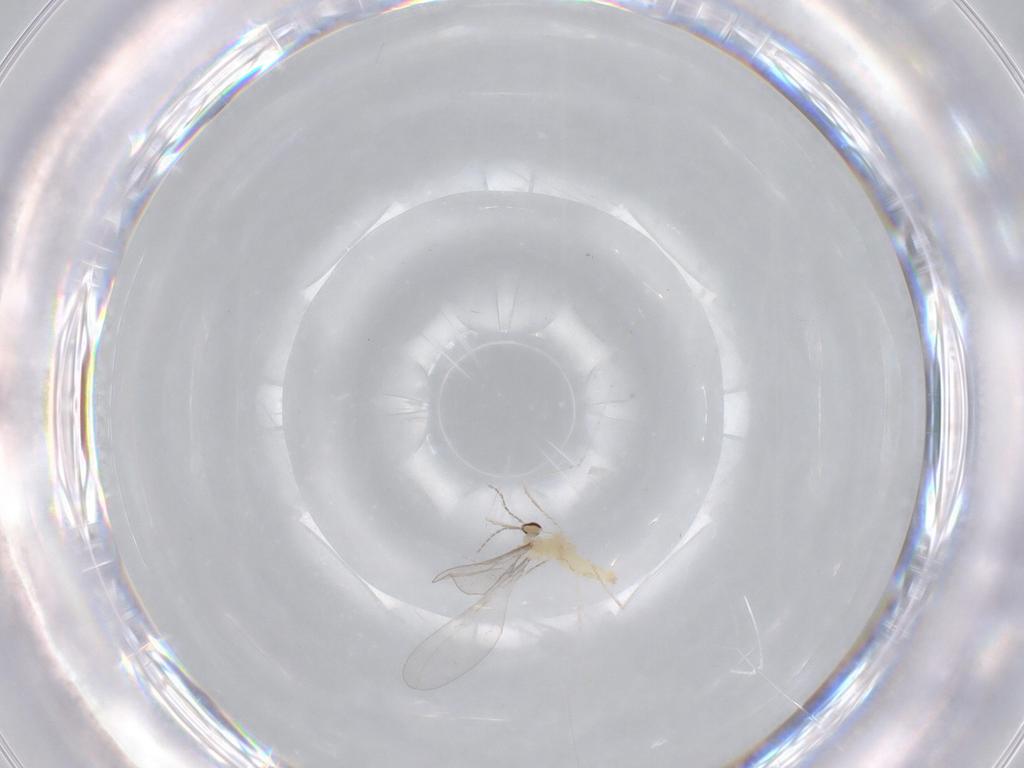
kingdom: Animalia
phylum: Arthropoda
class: Insecta
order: Diptera
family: Cecidomyiidae
